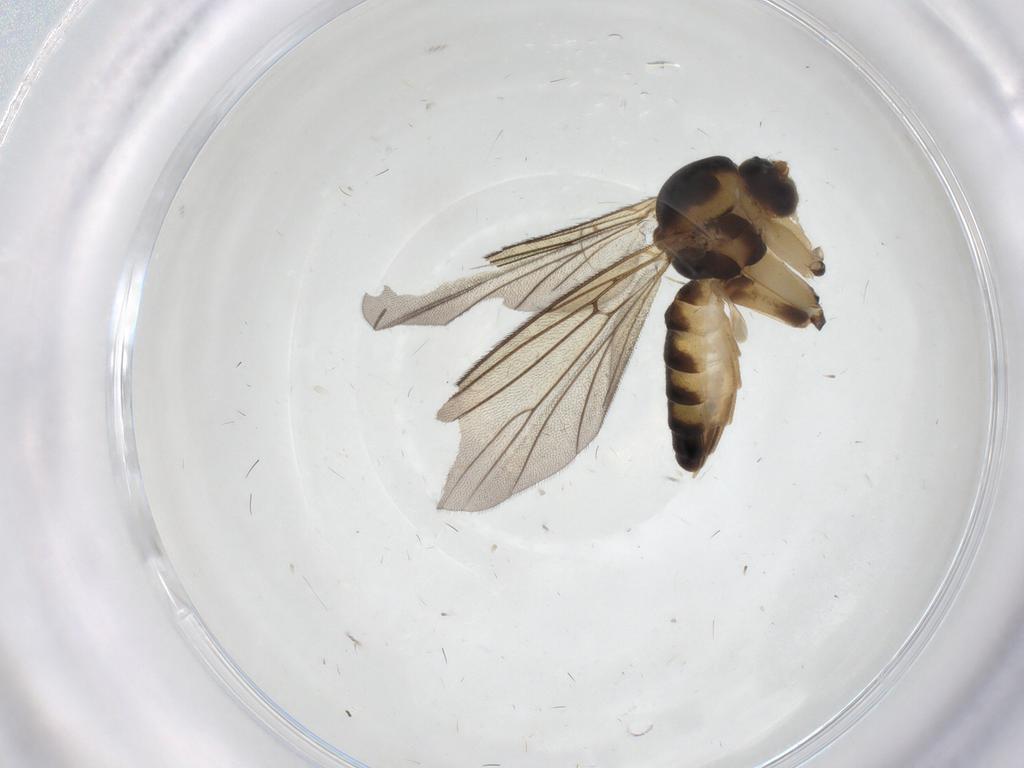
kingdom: Animalia
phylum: Arthropoda
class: Insecta
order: Diptera
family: Mycetophilidae
